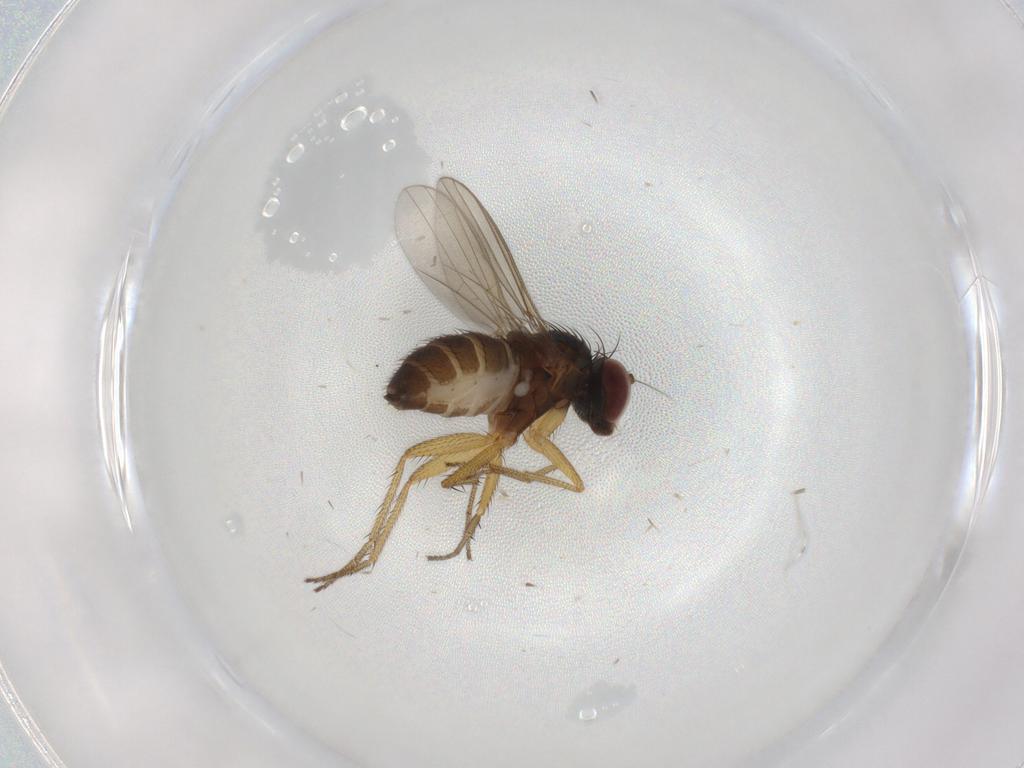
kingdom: Animalia
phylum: Arthropoda
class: Insecta
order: Diptera
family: Dolichopodidae
